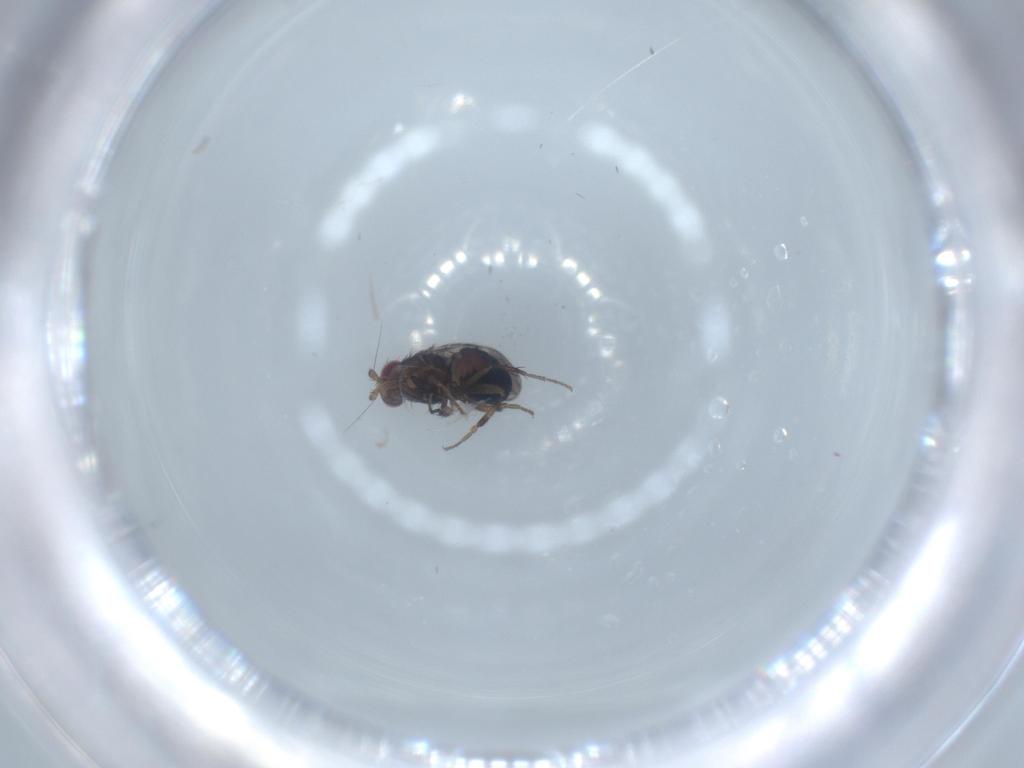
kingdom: Animalia
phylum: Arthropoda
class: Insecta
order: Diptera
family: Sphaeroceridae
